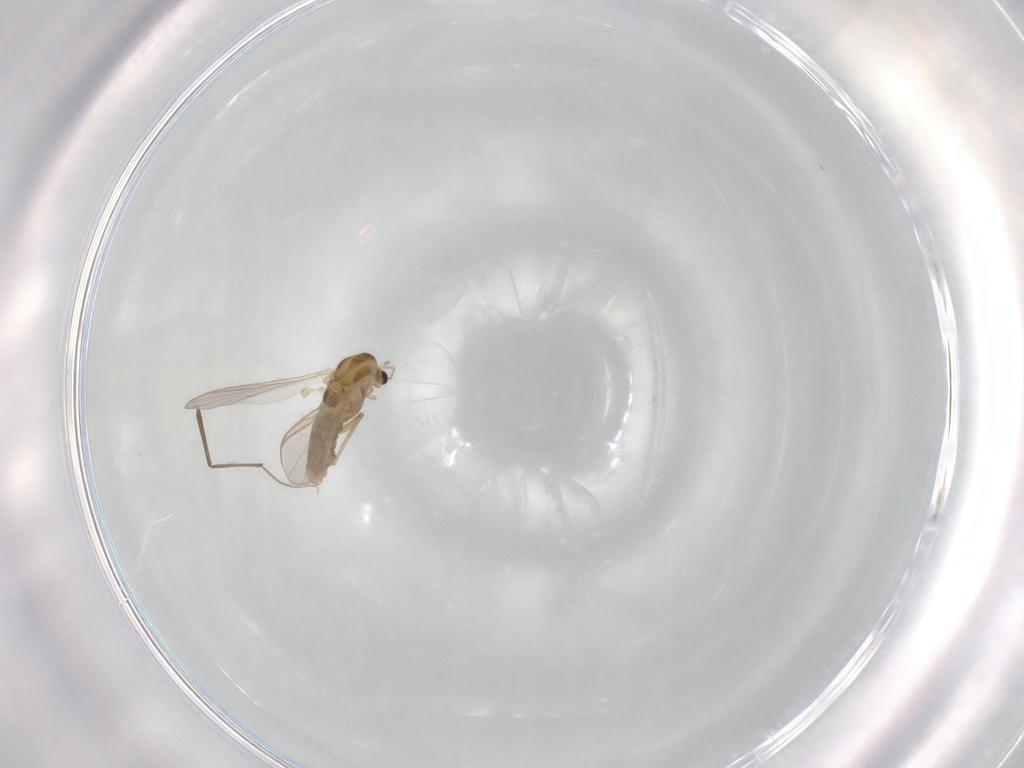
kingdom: Animalia
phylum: Arthropoda
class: Insecta
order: Diptera
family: Chironomidae
